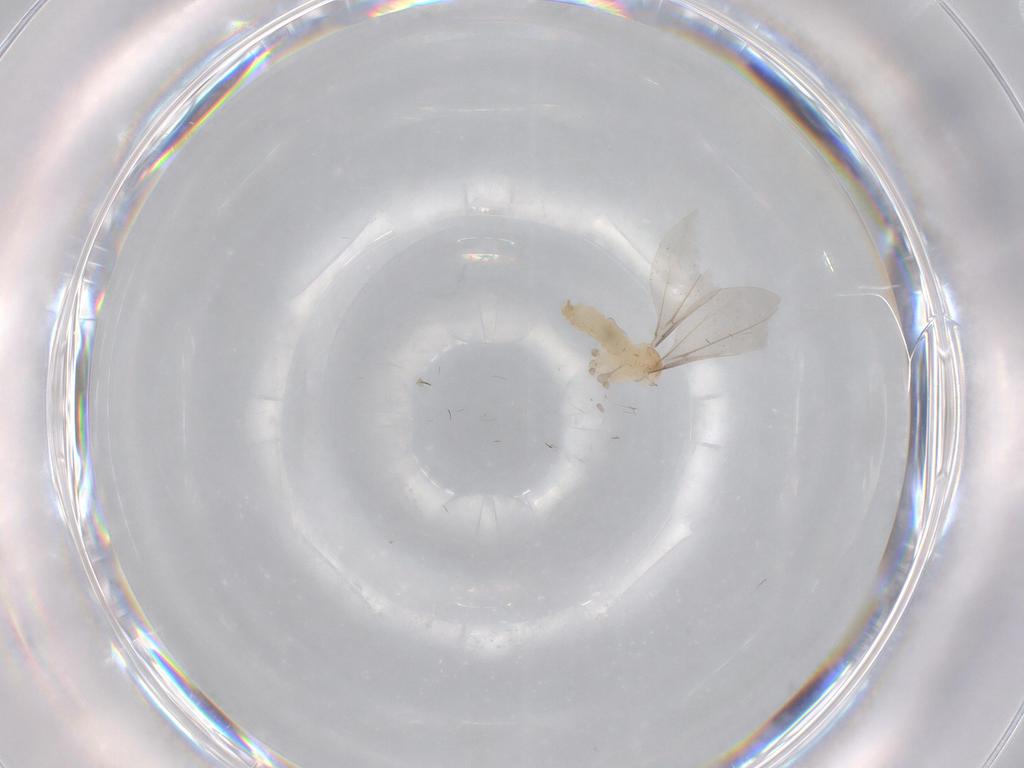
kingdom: Animalia
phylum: Arthropoda
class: Insecta
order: Diptera
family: Cecidomyiidae
